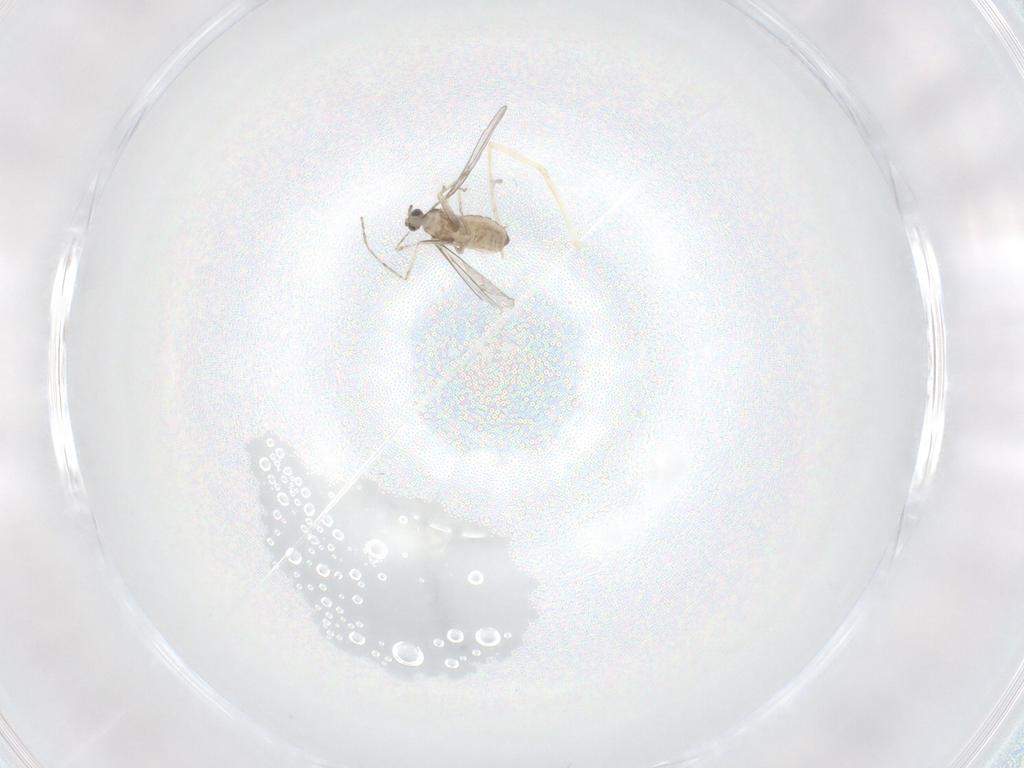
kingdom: Animalia
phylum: Arthropoda
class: Insecta
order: Diptera
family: Cecidomyiidae
